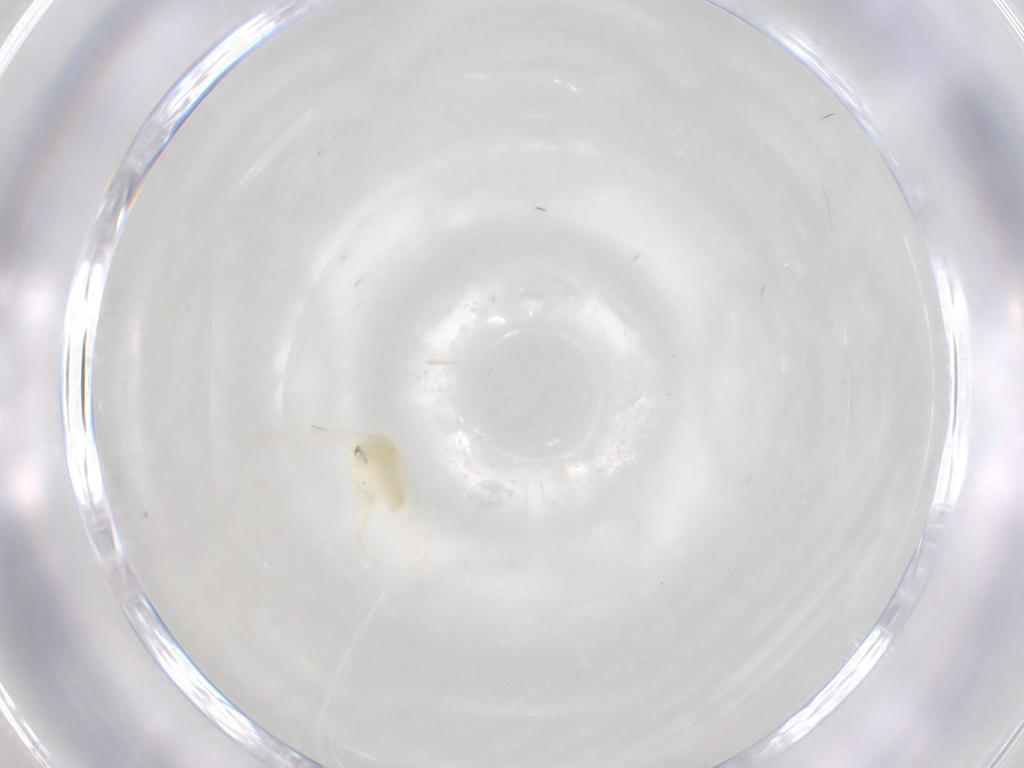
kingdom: Animalia
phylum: Arthropoda
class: Insecta
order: Hemiptera
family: Aleyrodidae
